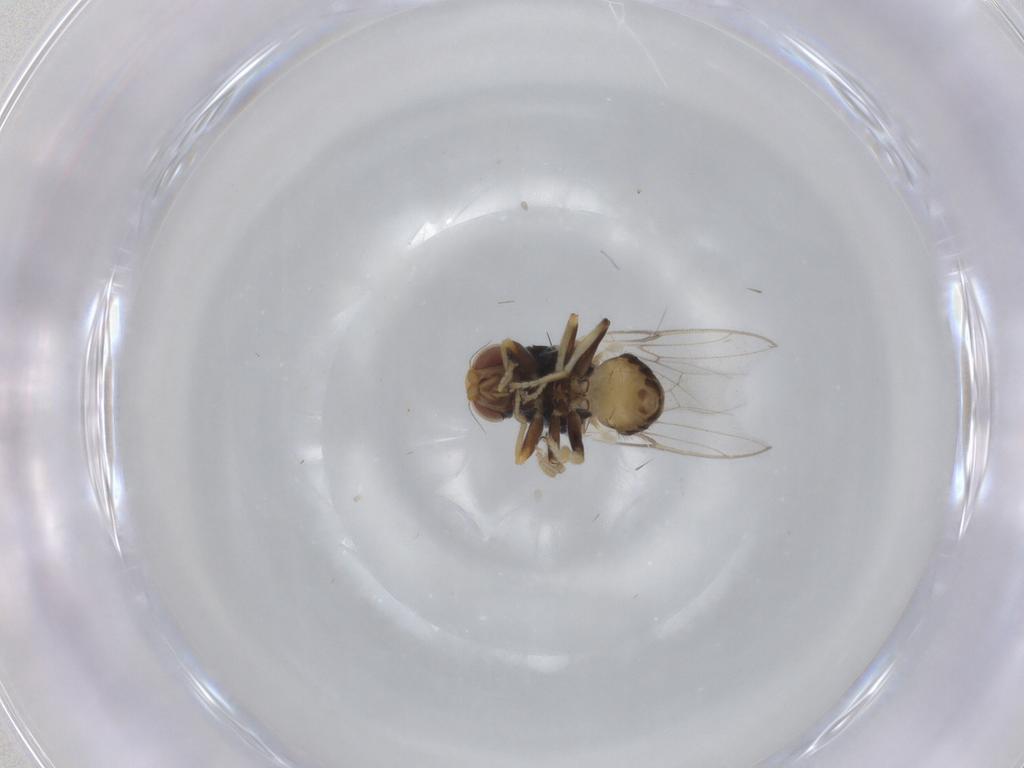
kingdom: Animalia
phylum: Arthropoda
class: Insecta
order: Diptera
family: Chloropidae
